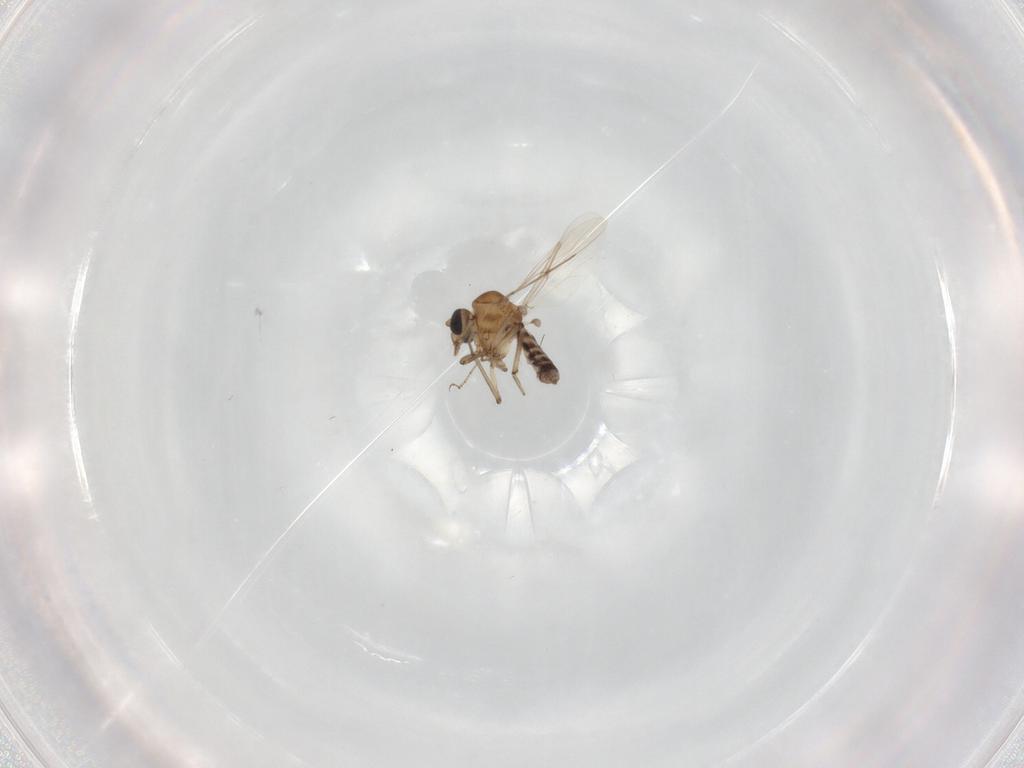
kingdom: Animalia
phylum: Arthropoda
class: Insecta
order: Diptera
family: Ceratopogonidae
